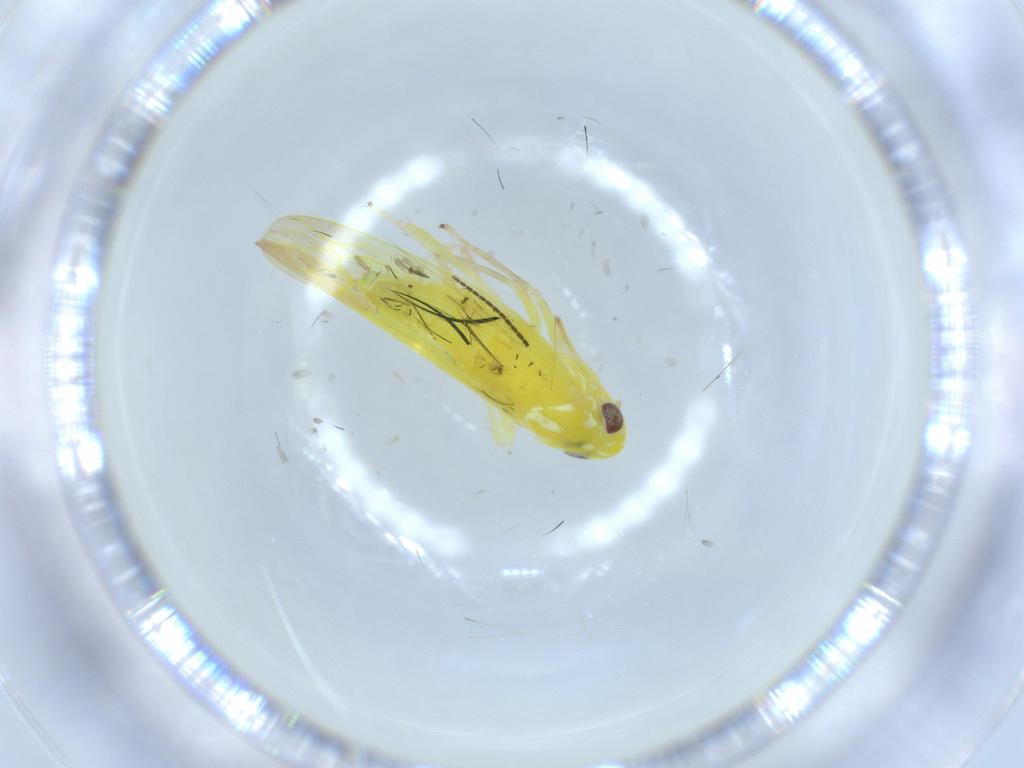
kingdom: Animalia
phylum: Arthropoda
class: Insecta
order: Hemiptera
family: Cicadellidae
